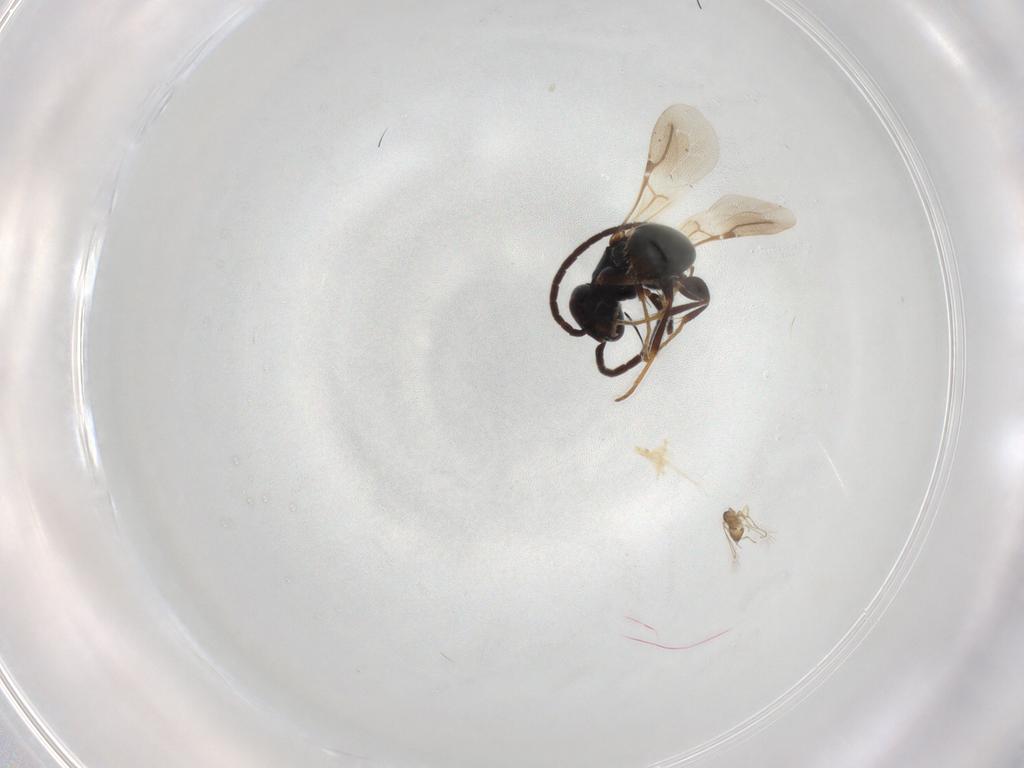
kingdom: Animalia
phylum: Arthropoda
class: Insecta
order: Hymenoptera
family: Bethylidae
